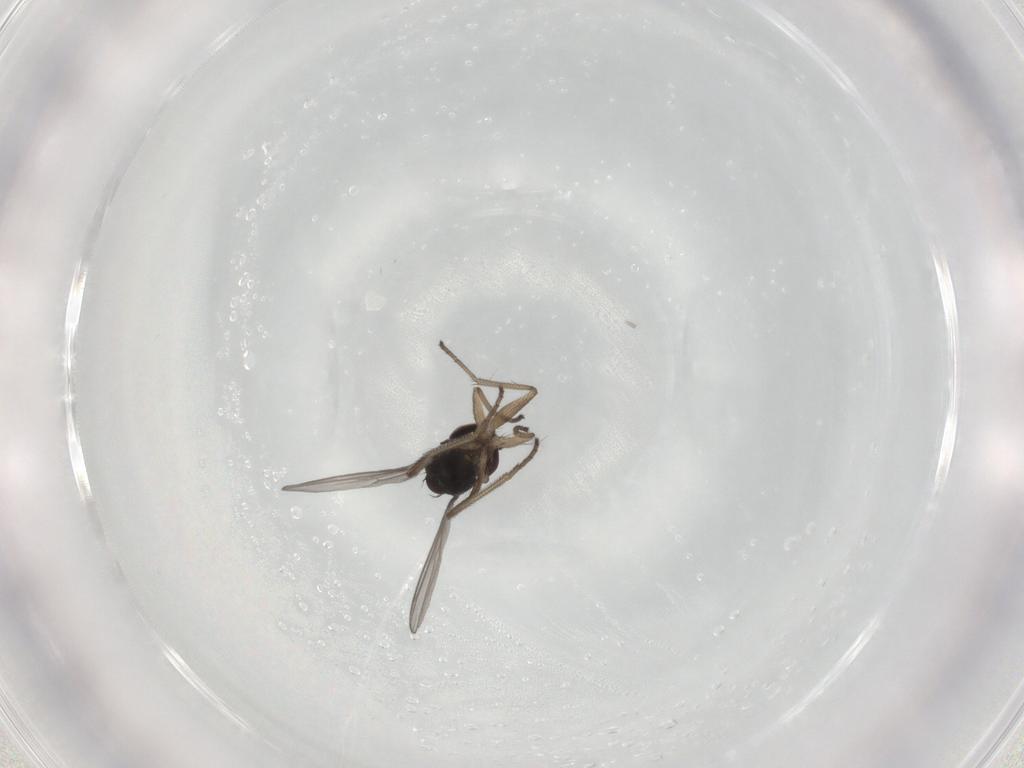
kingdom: Animalia
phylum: Arthropoda
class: Insecta
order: Diptera
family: Dolichopodidae
